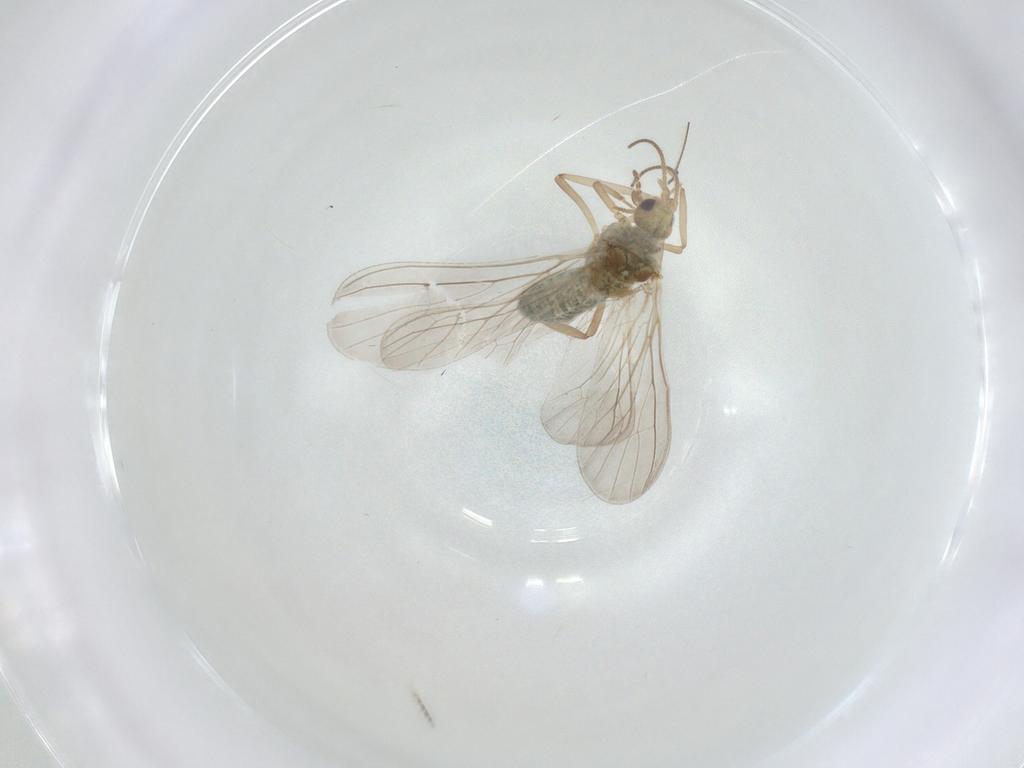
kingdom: Animalia
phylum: Arthropoda
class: Insecta
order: Neuroptera
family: Coniopterygidae
